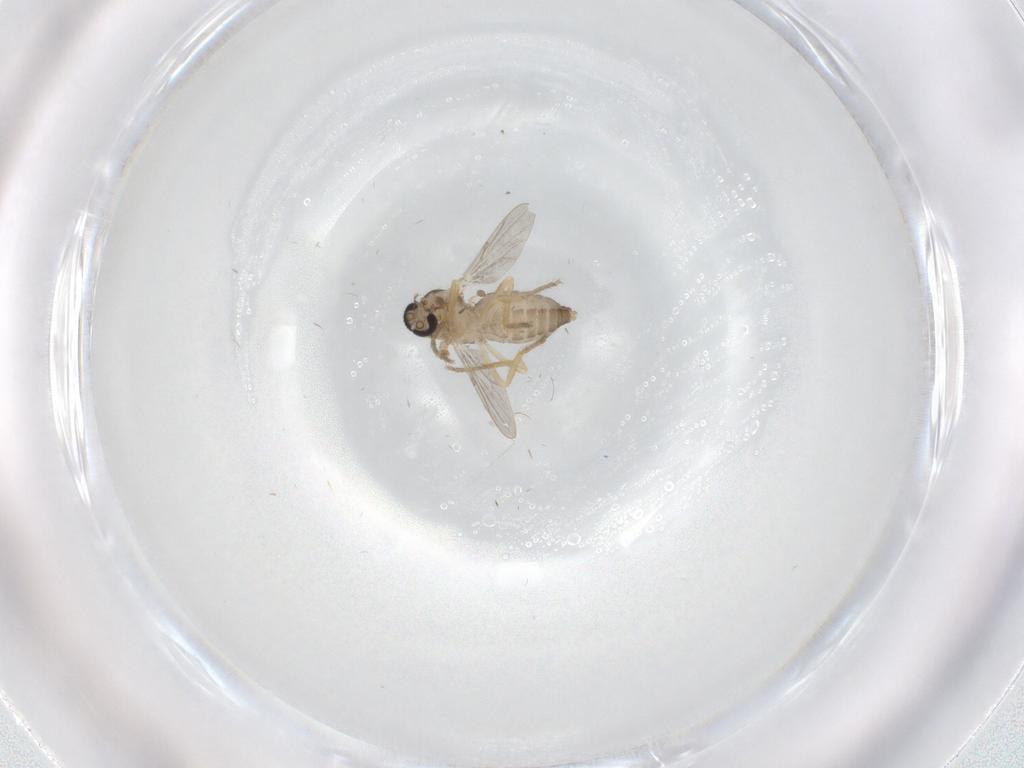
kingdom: Animalia
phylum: Arthropoda
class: Insecta
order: Diptera
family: Ceratopogonidae
